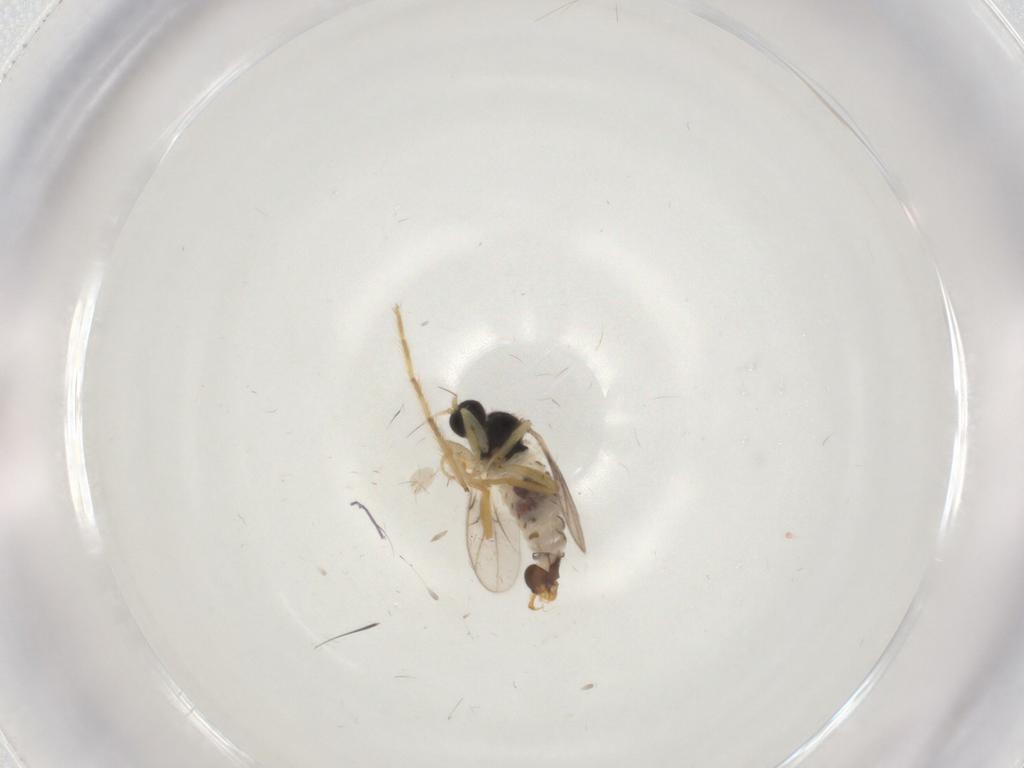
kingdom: Animalia
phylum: Arthropoda
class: Insecta
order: Diptera
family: Hybotidae
